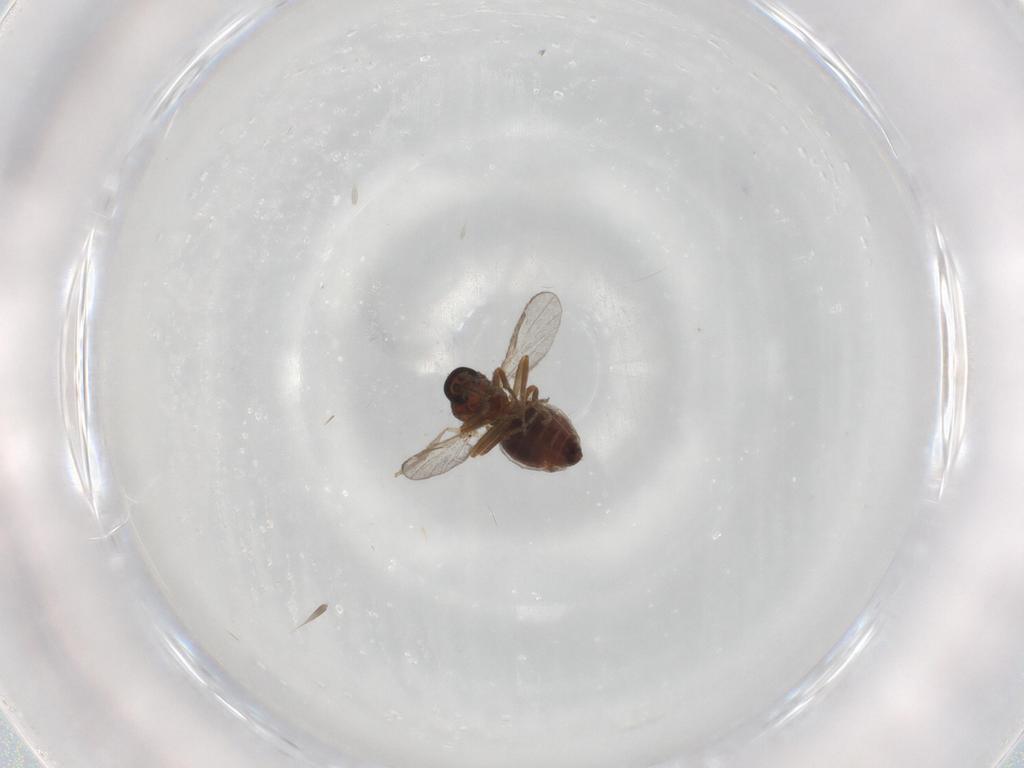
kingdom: Animalia
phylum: Arthropoda
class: Insecta
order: Diptera
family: Ceratopogonidae
